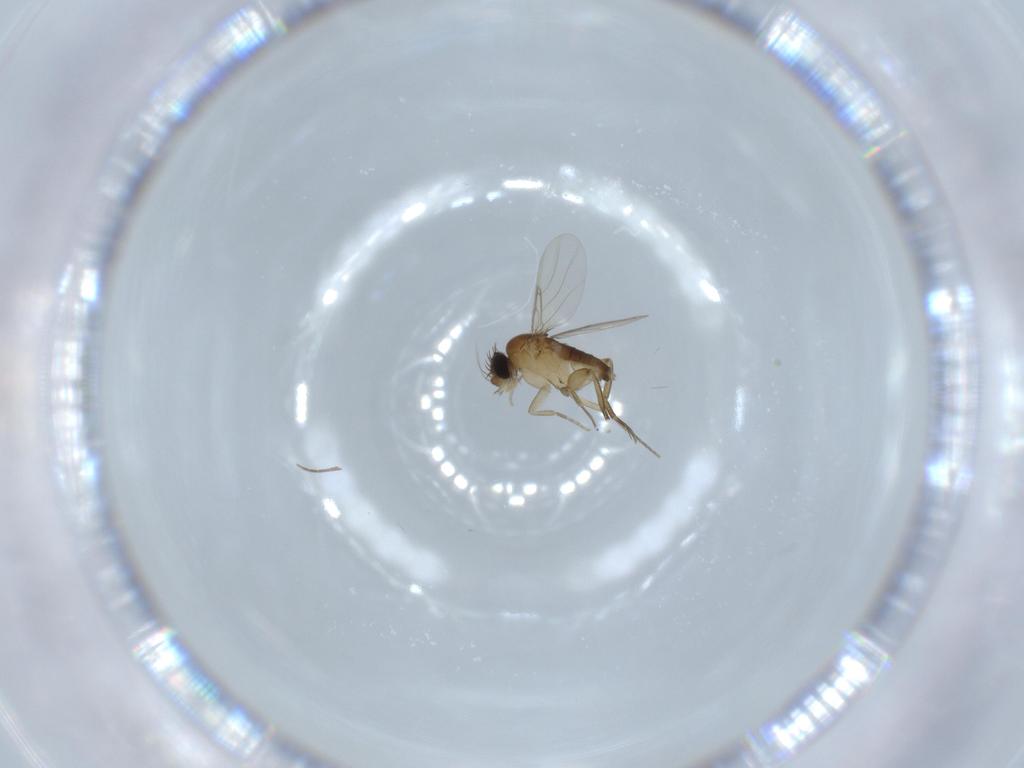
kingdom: Animalia
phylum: Arthropoda
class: Insecta
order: Diptera
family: Phoridae
